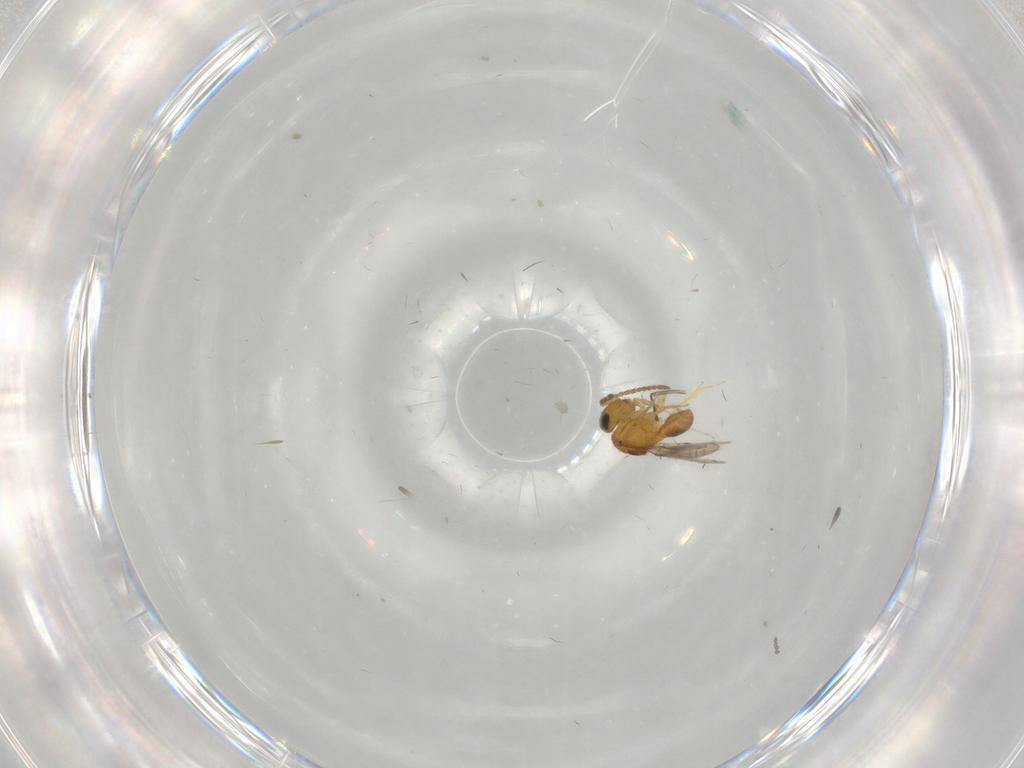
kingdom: Animalia
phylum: Arthropoda
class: Insecta
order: Hymenoptera
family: Scelionidae
